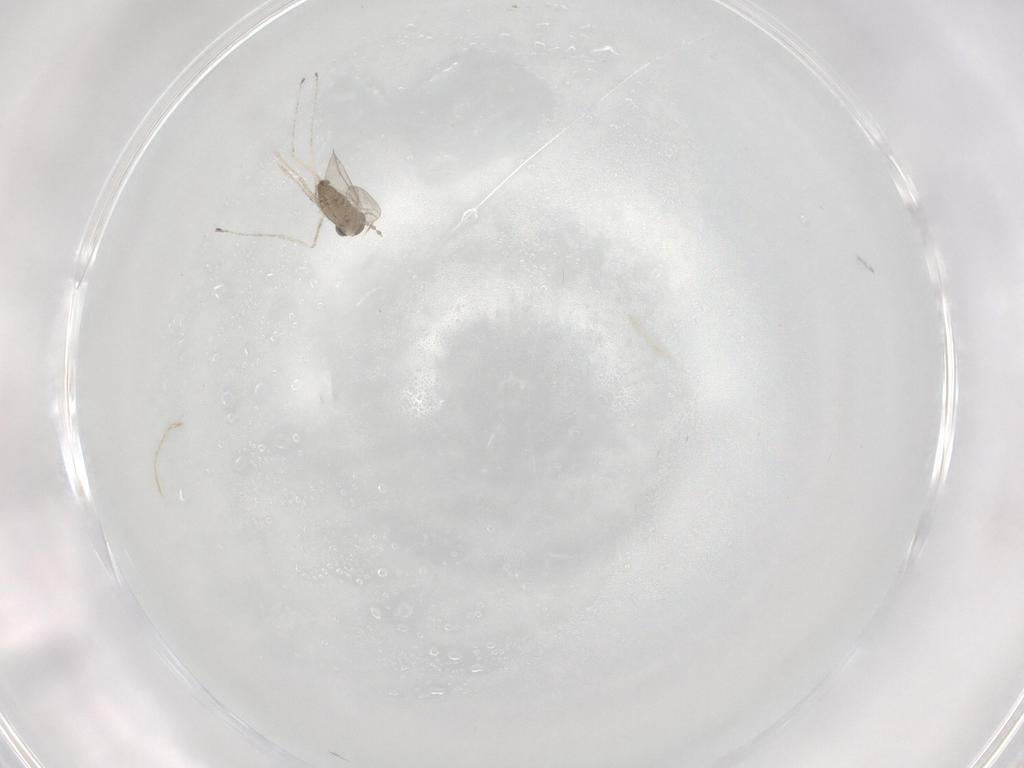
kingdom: Animalia
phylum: Arthropoda
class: Insecta
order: Diptera
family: Cecidomyiidae
